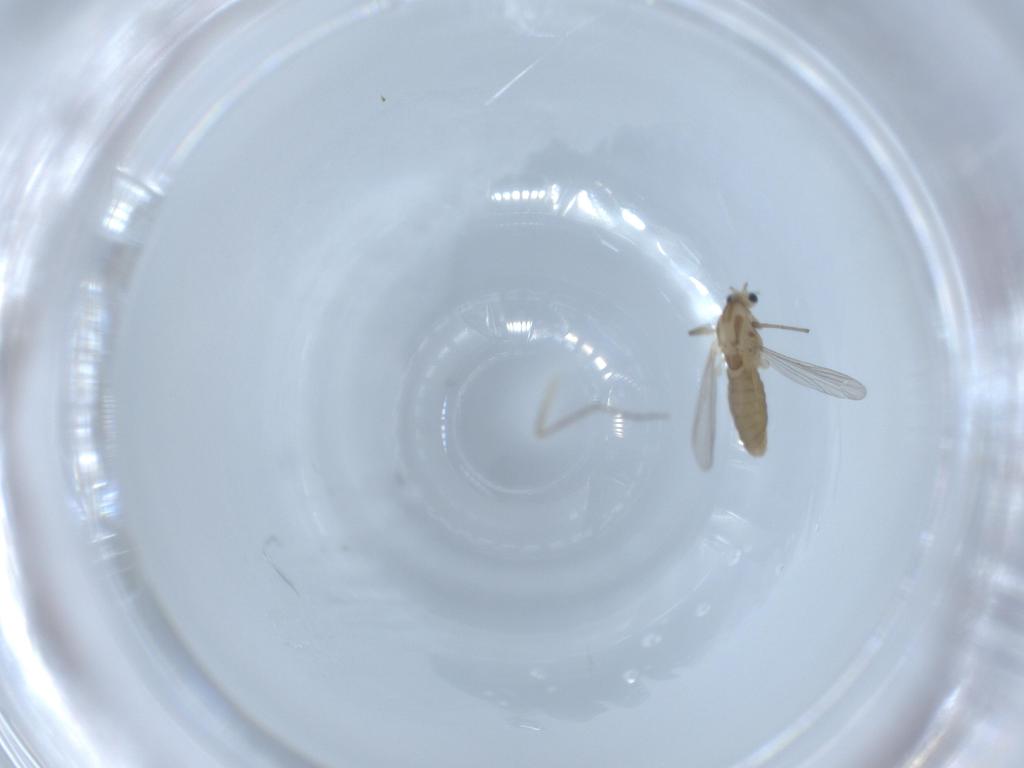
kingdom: Animalia
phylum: Arthropoda
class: Insecta
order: Diptera
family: Chironomidae
